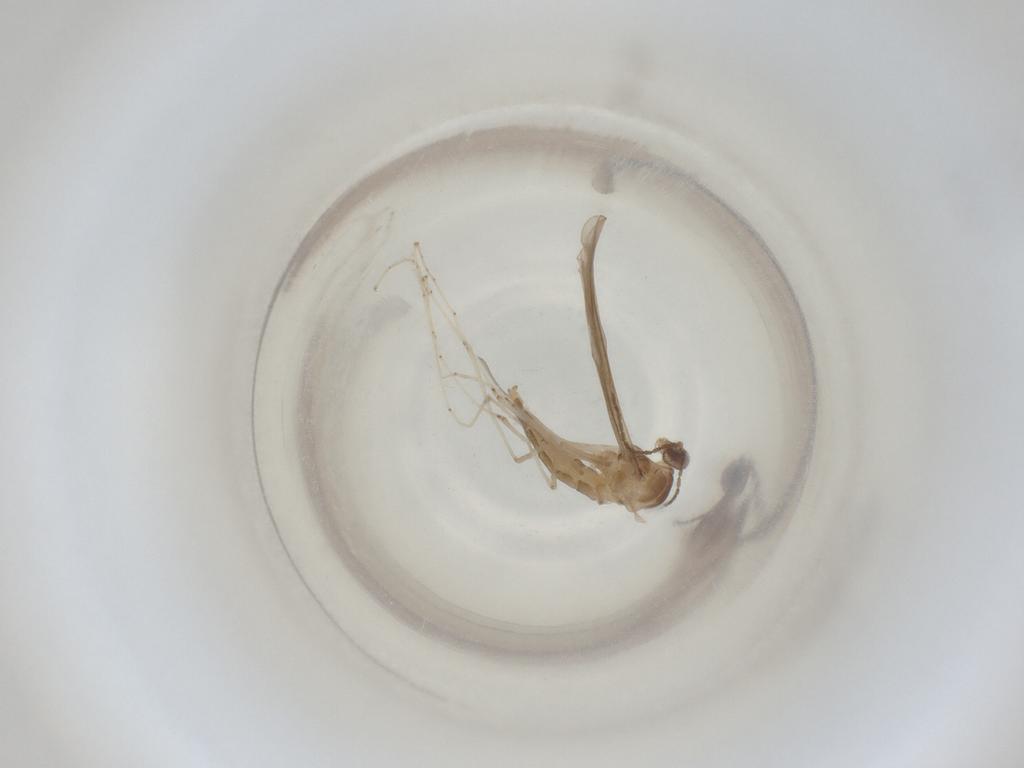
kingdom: Animalia
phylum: Arthropoda
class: Insecta
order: Diptera
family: Cecidomyiidae
